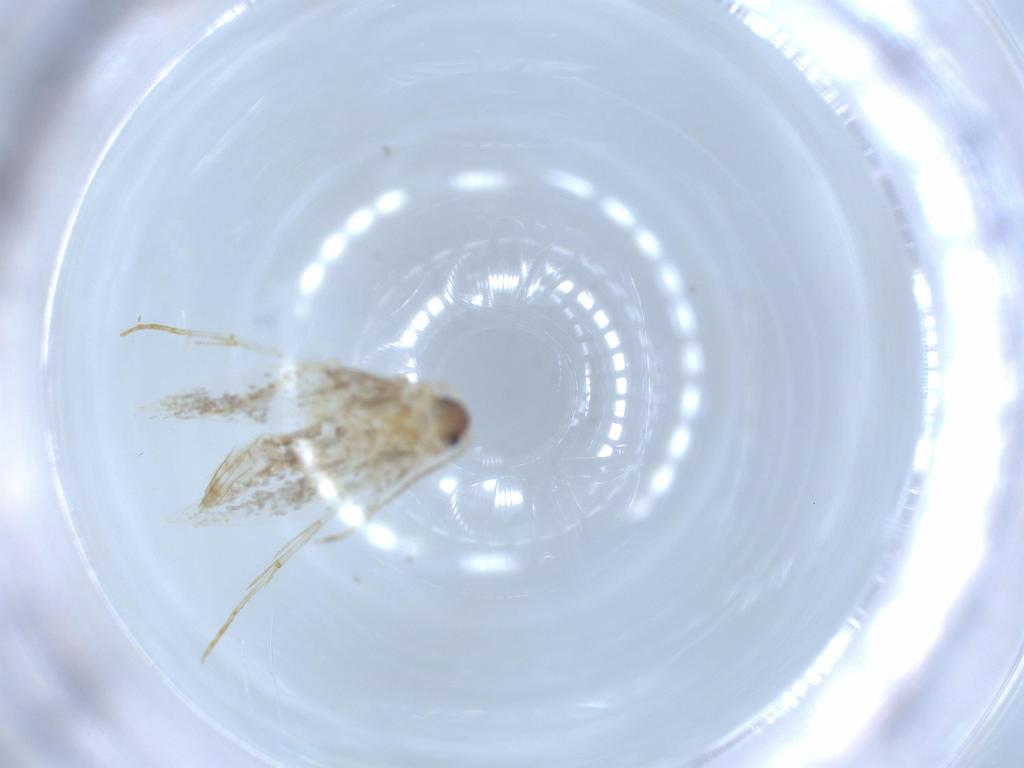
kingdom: Animalia
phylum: Arthropoda
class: Insecta
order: Lepidoptera
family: Tineidae
